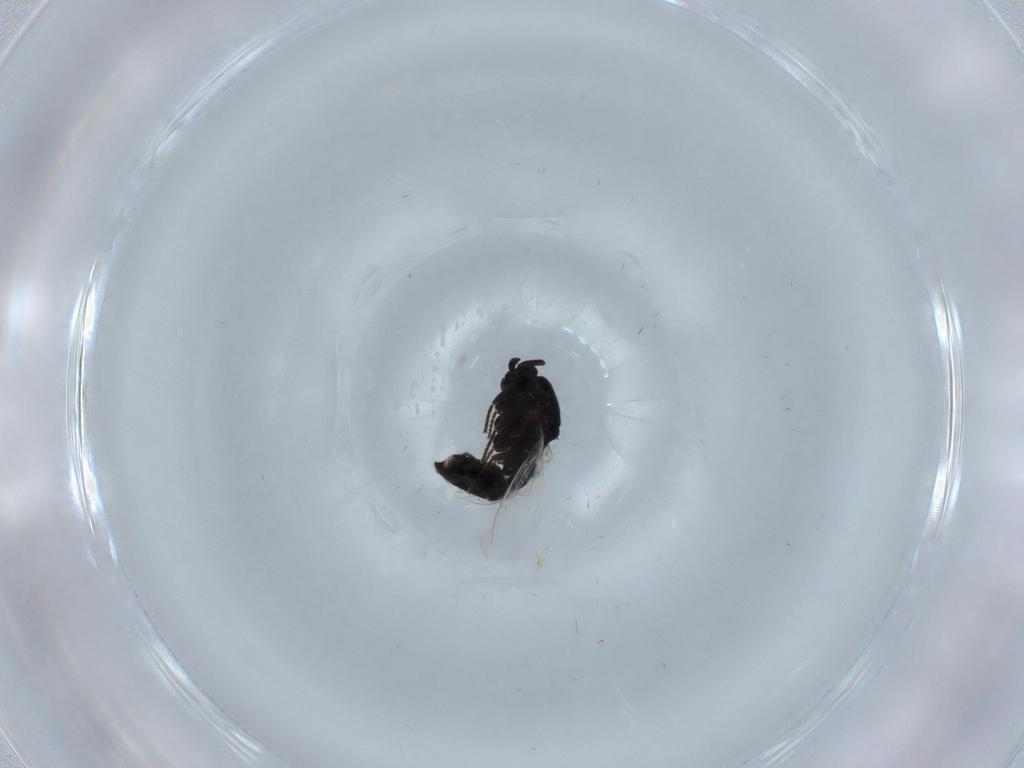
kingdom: Animalia
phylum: Arthropoda
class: Insecta
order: Diptera
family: Scatopsidae
